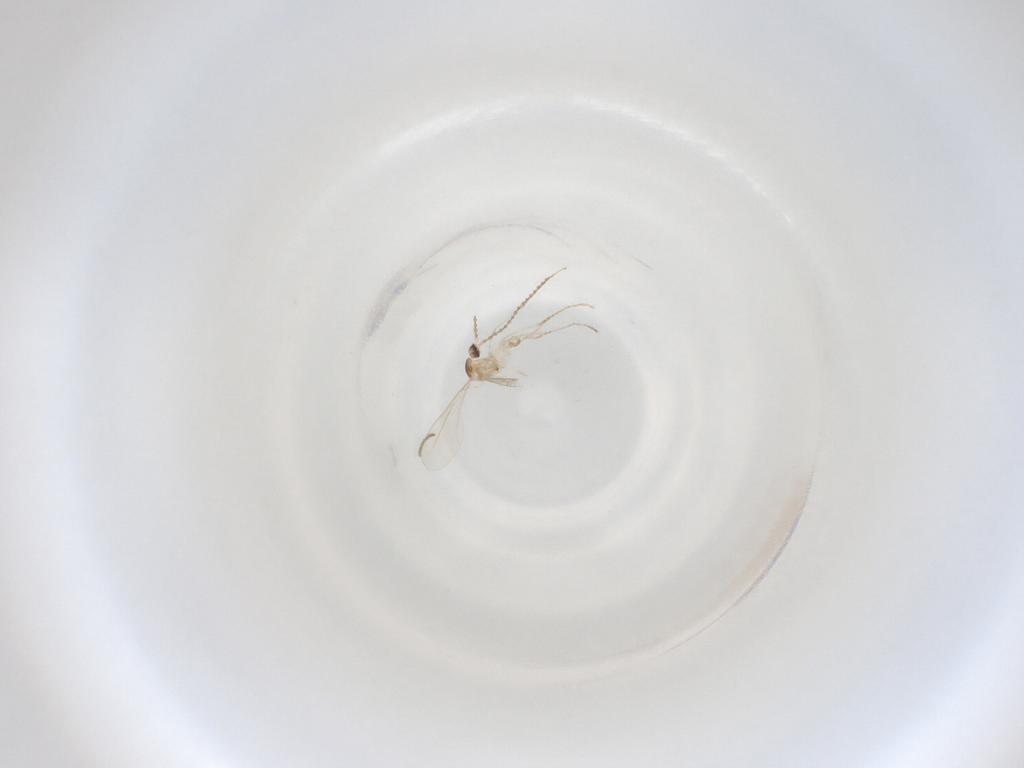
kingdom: Animalia
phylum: Arthropoda
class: Insecta
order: Diptera
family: Cecidomyiidae
